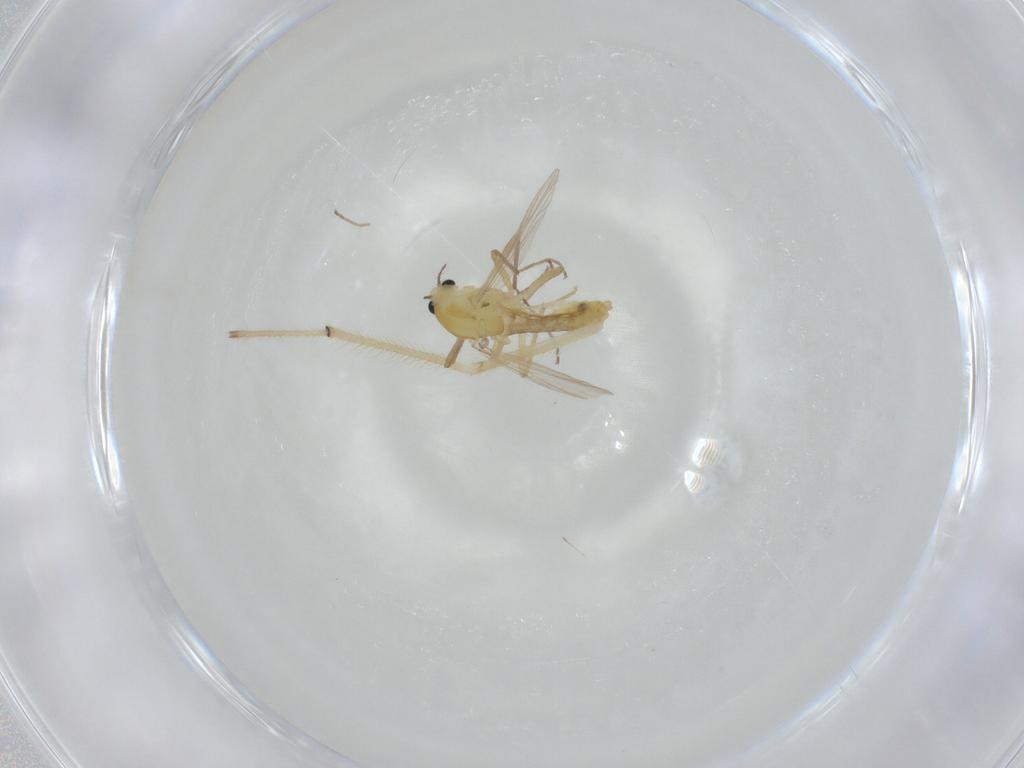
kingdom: Animalia
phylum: Arthropoda
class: Insecta
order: Diptera
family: Chironomidae
